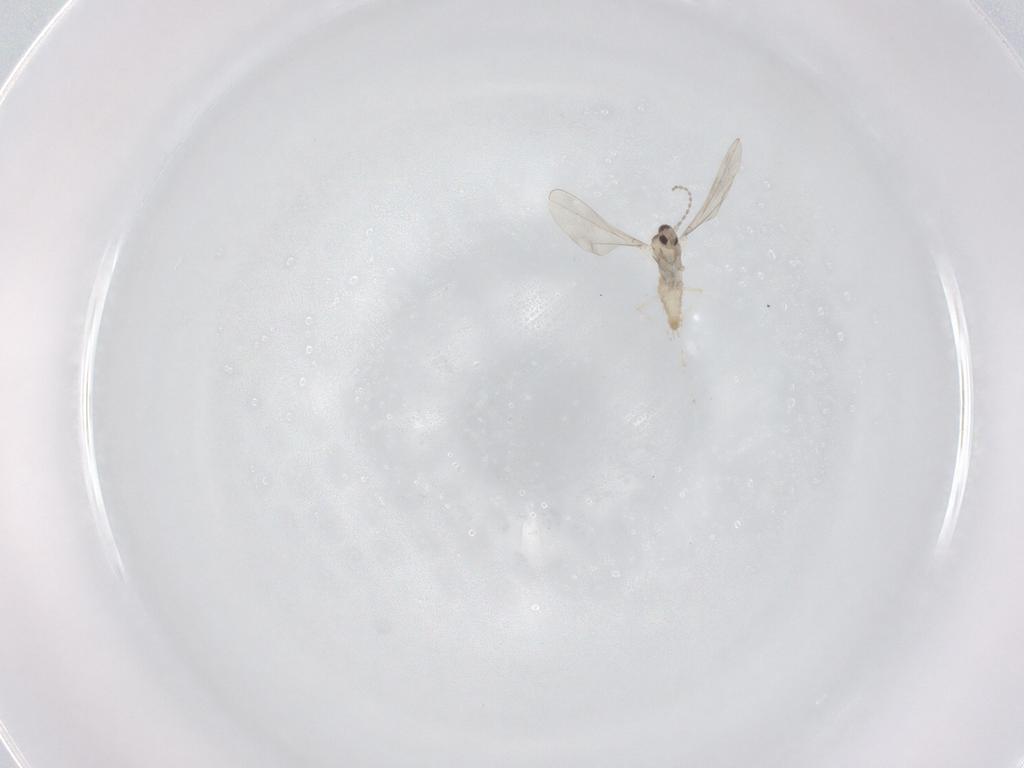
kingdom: Animalia
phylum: Arthropoda
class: Insecta
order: Diptera
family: Cecidomyiidae
